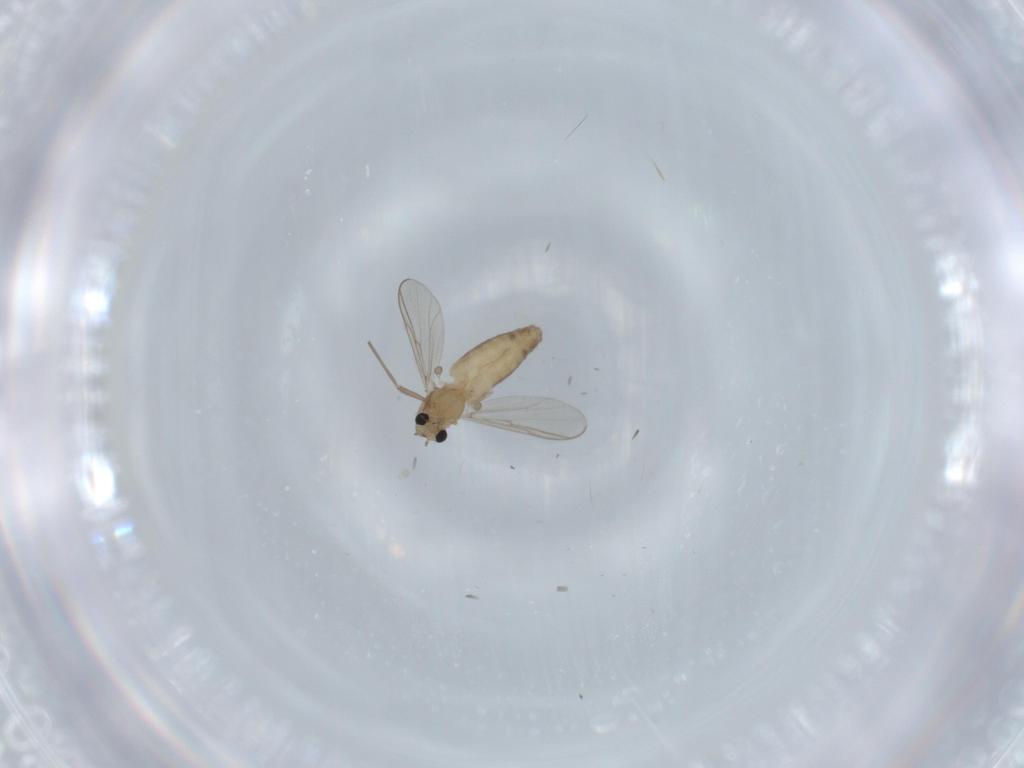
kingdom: Animalia
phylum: Arthropoda
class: Insecta
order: Diptera
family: Chironomidae
